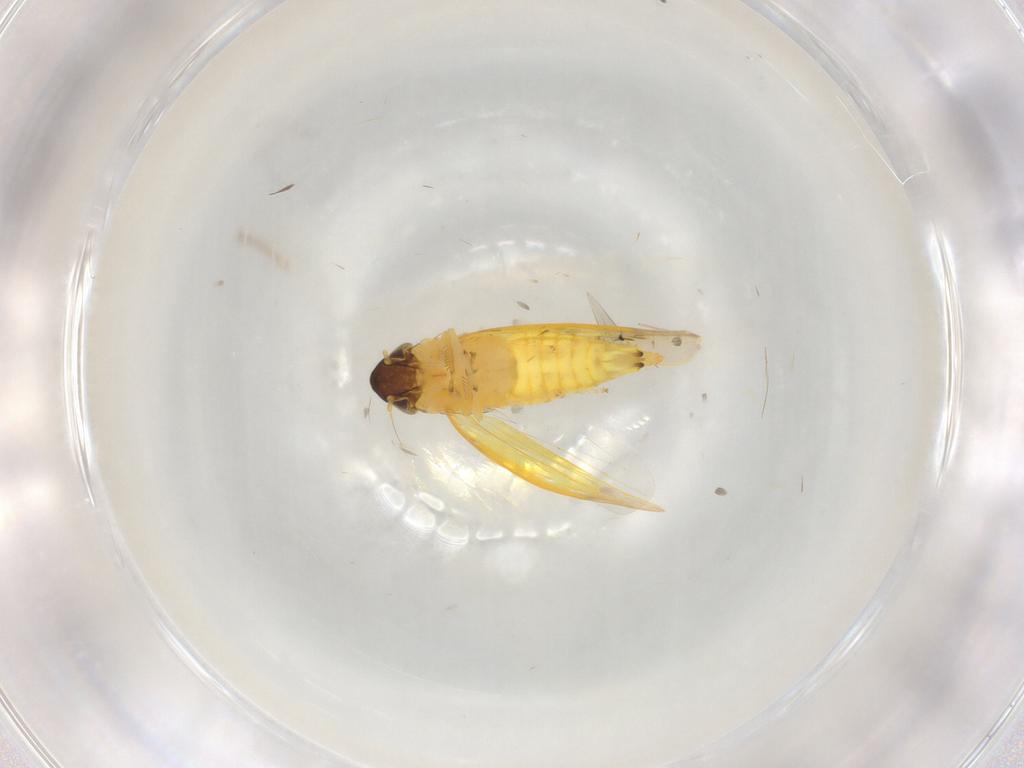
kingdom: Animalia
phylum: Arthropoda
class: Insecta
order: Hemiptera
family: Cicadellidae
